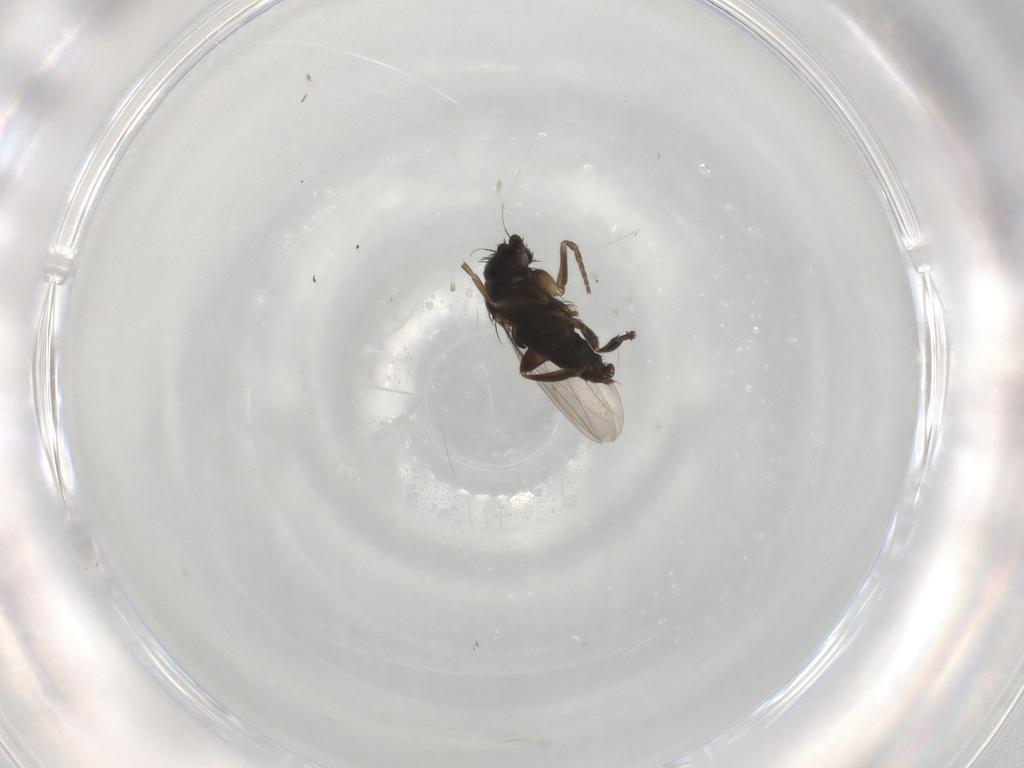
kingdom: Animalia
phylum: Arthropoda
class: Insecta
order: Diptera
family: Phoridae
